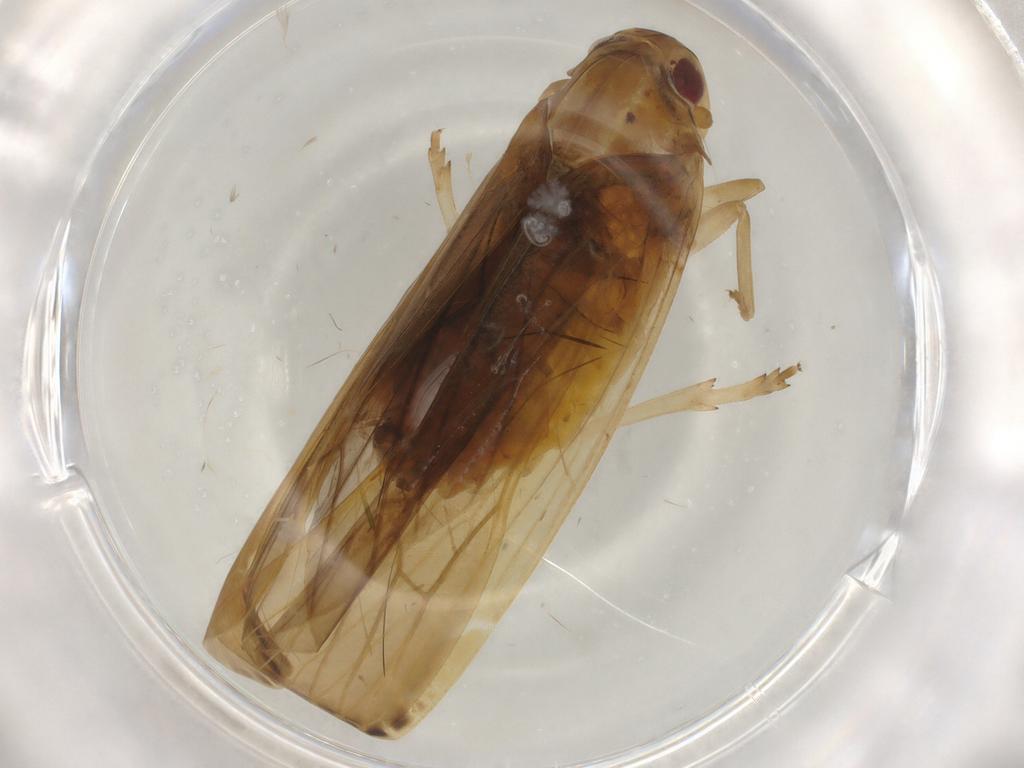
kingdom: Animalia
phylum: Arthropoda
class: Insecta
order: Hemiptera
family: Achilidae
